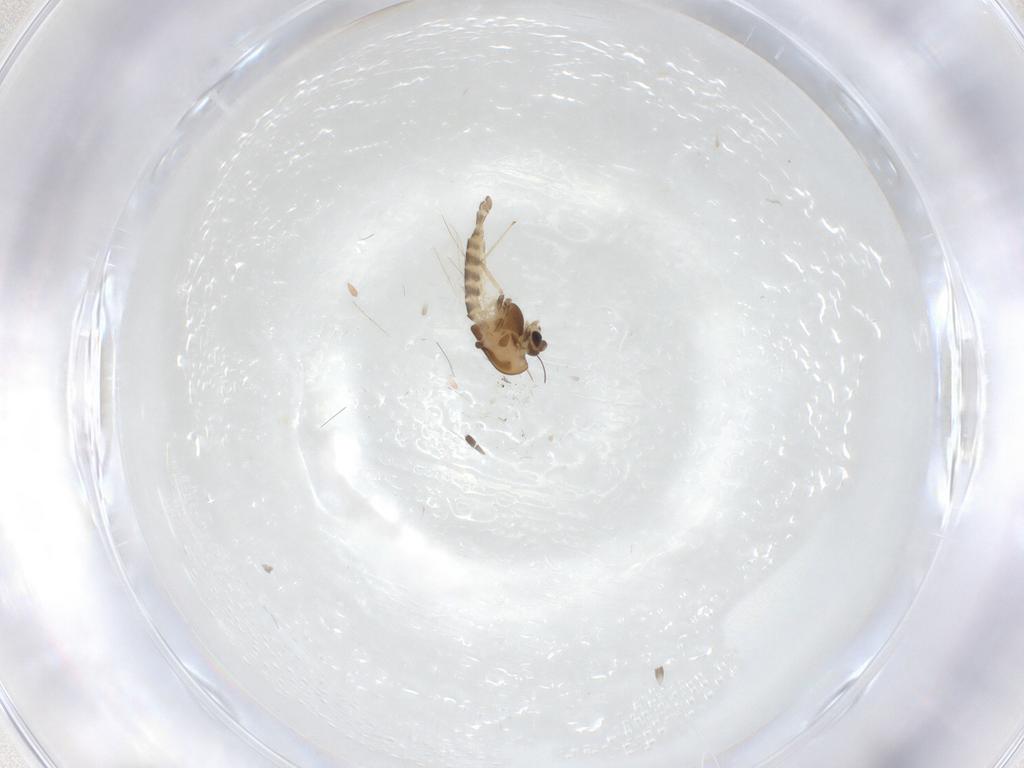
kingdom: Animalia
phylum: Arthropoda
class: Insecta
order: Diptera
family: Chironomidae
